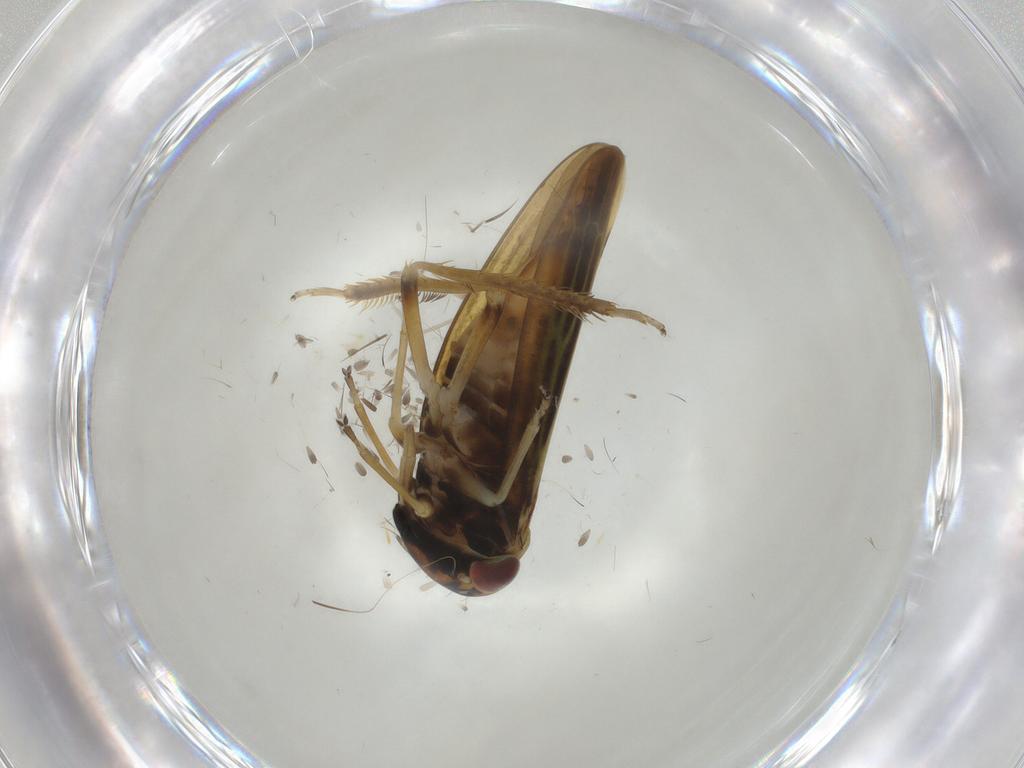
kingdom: Animalia
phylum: Arthropoda
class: Insecta
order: Hemiptera
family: Cicadellidae
